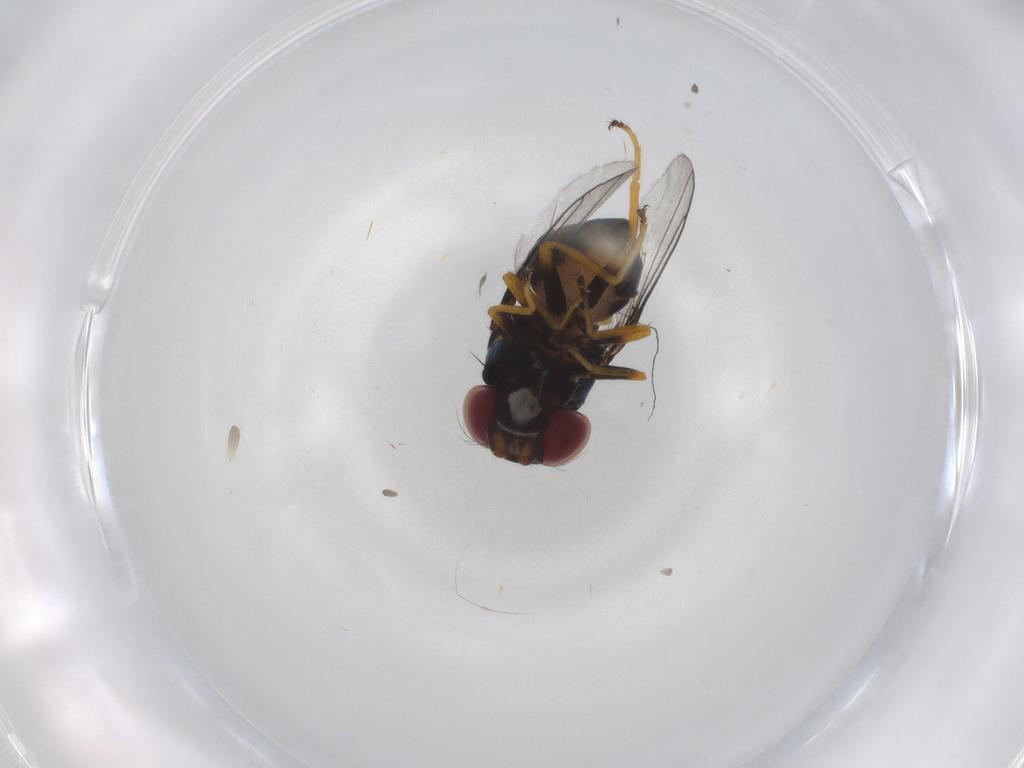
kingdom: Animalia
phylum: Arthropoda
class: Insecta
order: Diptera
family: Chloropidae
